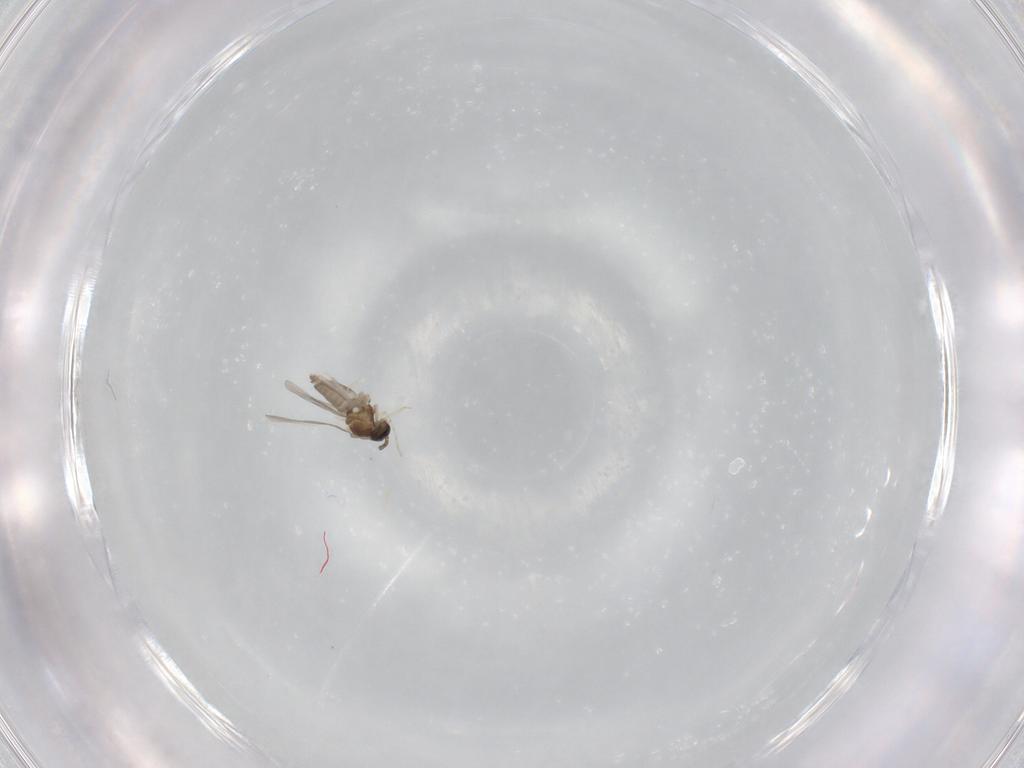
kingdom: Animalia
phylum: Arthropoda
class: Insecta
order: Diptera
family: Cecidomyiidae
